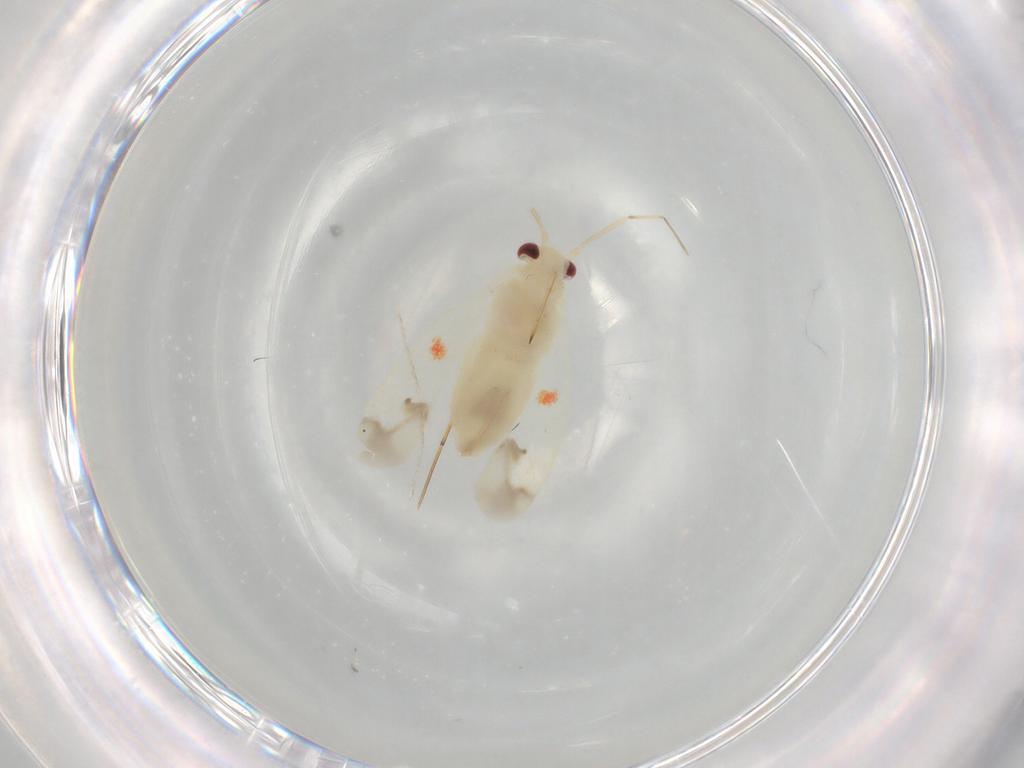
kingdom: Animalia
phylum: Arthropoda
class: Insecta
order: Hemiptera
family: Miridae
